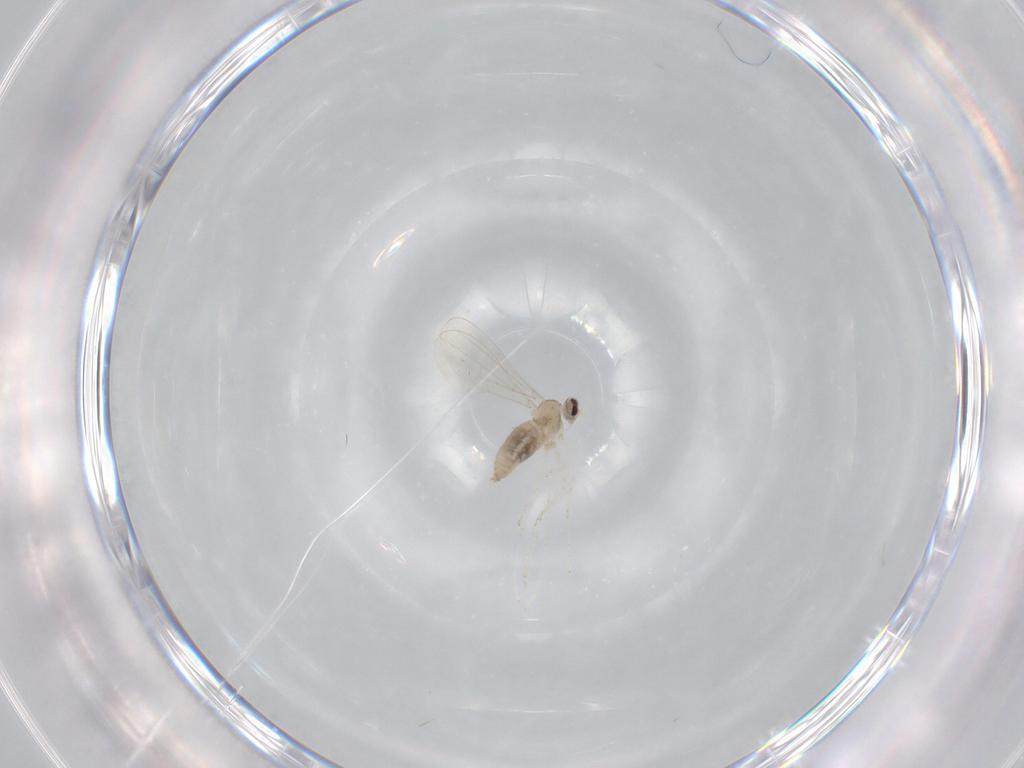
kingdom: Animalia
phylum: Arthropoda
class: Insecta
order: Diptera
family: Cecidomyiidae
